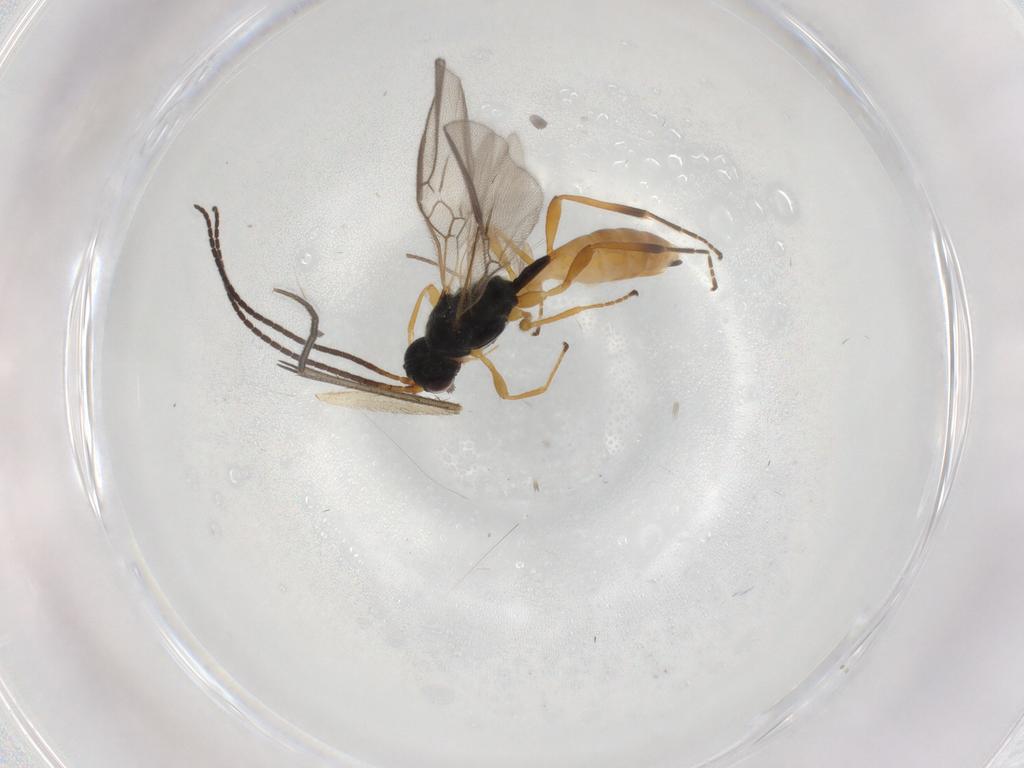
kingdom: Animalia
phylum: Arthropoda
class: Insecta
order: Hymenoptera
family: Braconidae
